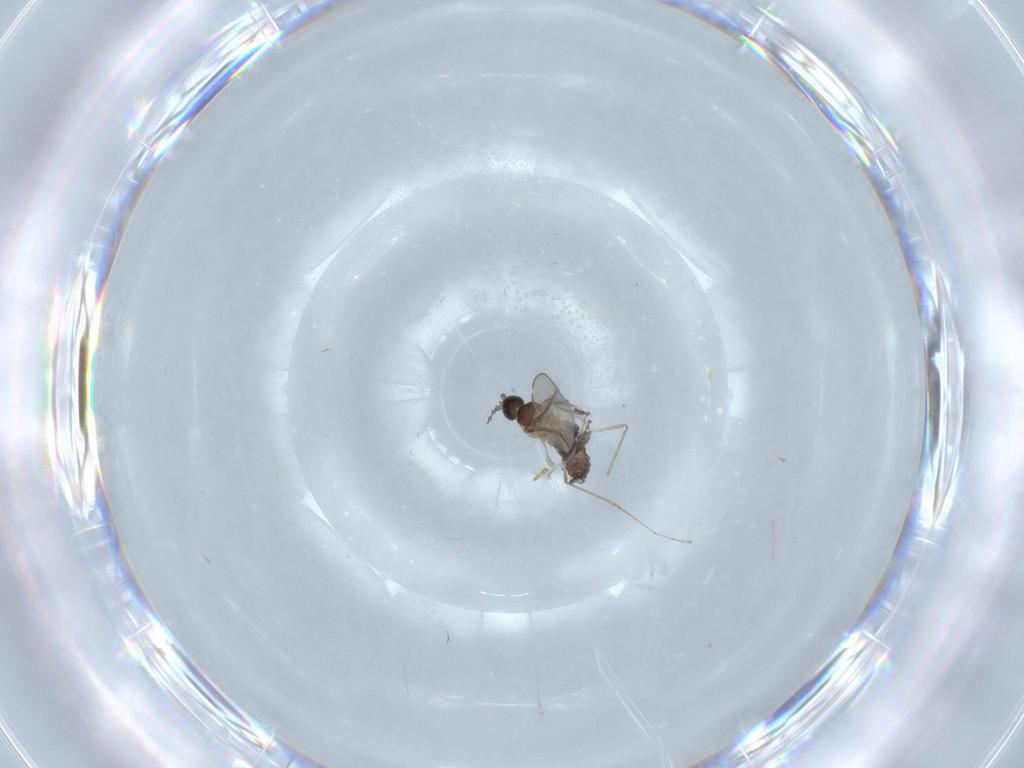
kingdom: Animalia
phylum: Arthropoda
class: Insecta
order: Diptera
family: Cecidomyiidae
